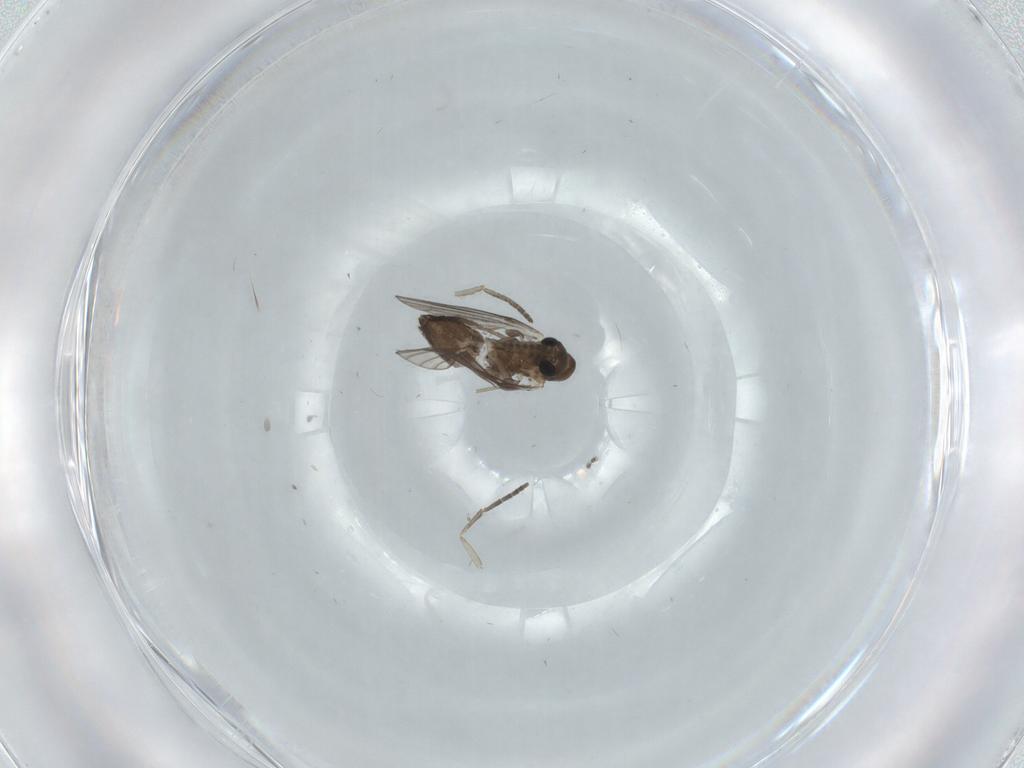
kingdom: Animalia
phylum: Arthropoda
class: Insecta
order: Diptera
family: Cecidomyiidae
